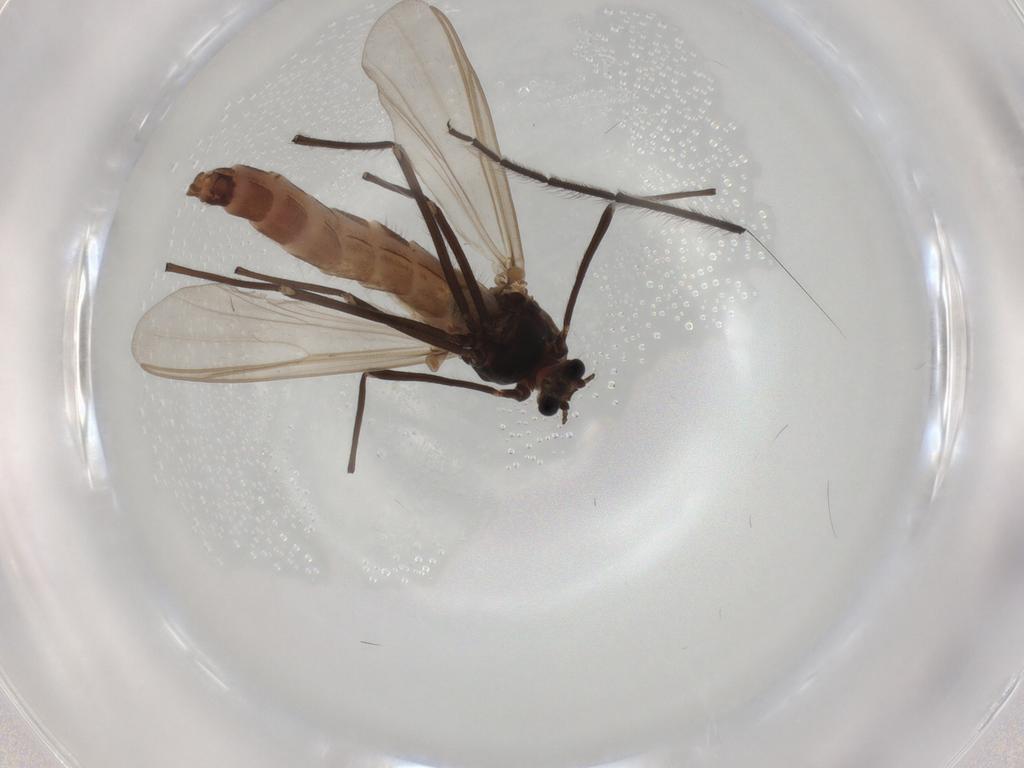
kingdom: Animalia
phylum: Arthropoda
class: Insecta
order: Diptera
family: Chironomidae
